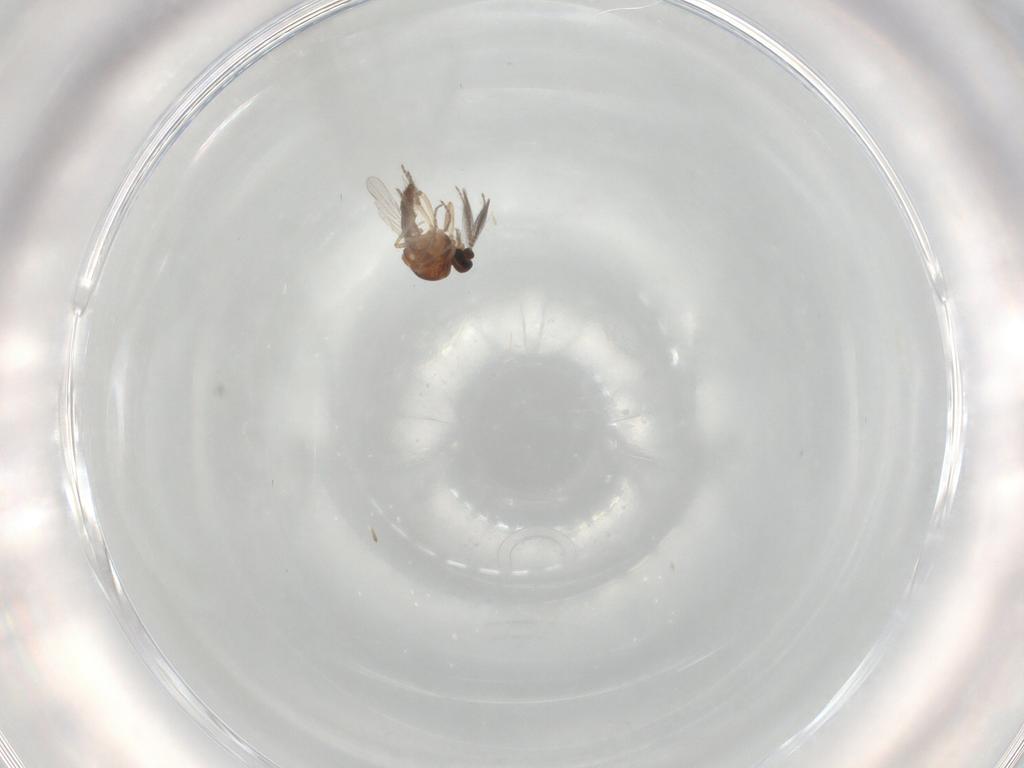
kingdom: Animalia
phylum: Arthropoda
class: Insecta
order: Diptera
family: Ceratopogonidae
